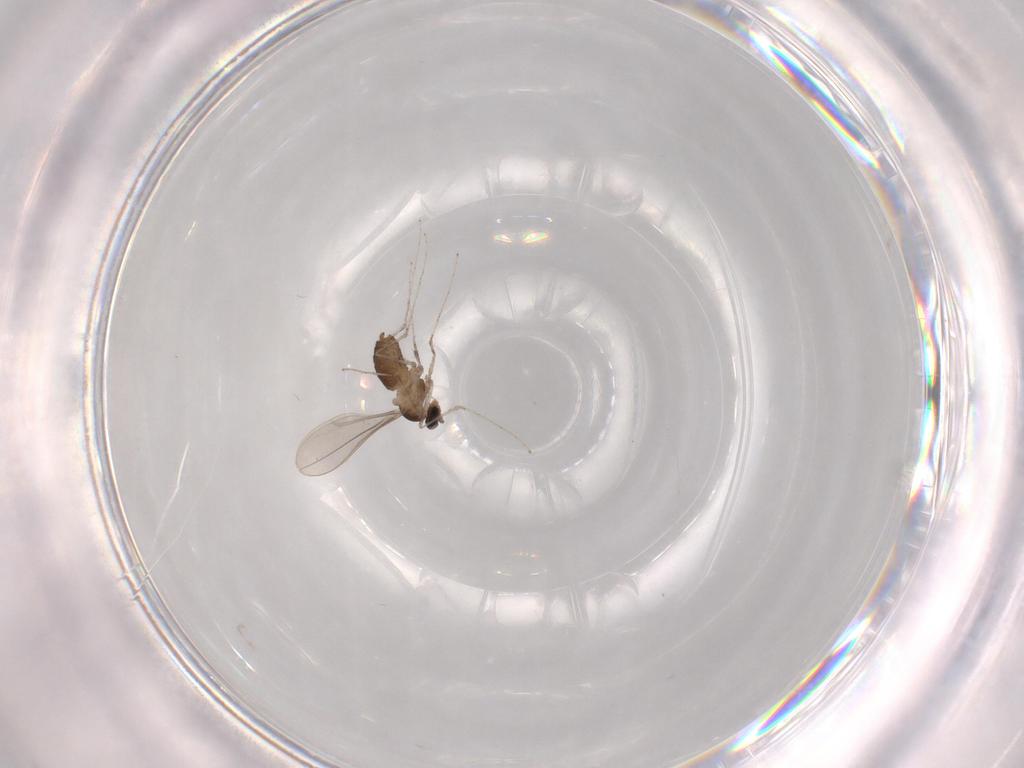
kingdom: Animalia
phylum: Arthropoda
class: Insecta
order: Diptera
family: Cecidomyiidae
